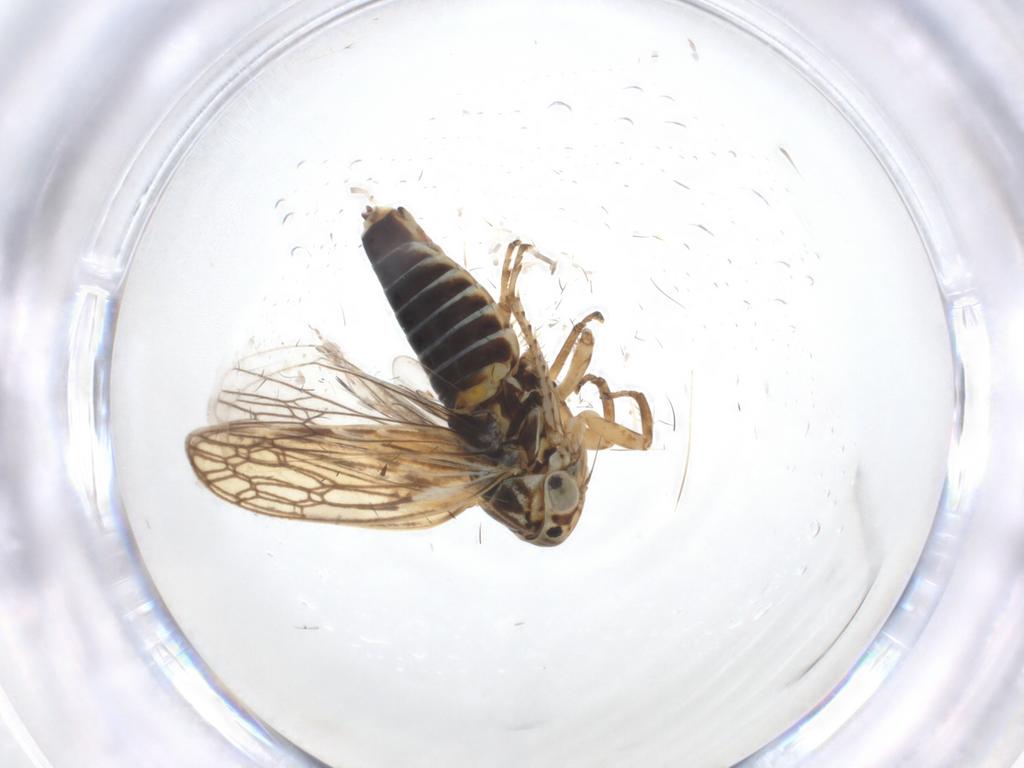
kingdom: Animalia
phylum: Arthropoda
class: Insecta
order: Hemiptera
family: Cicadellidae
